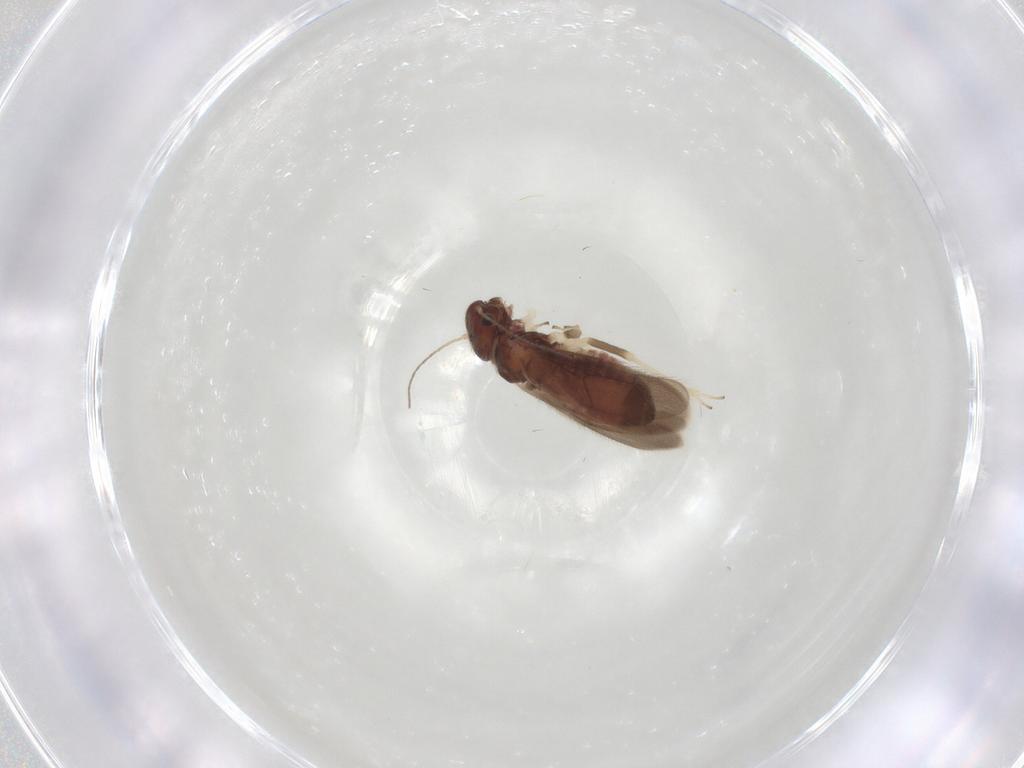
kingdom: Animalia
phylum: Arthropoda
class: Insecta
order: Psocodea
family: Archipsocidae
